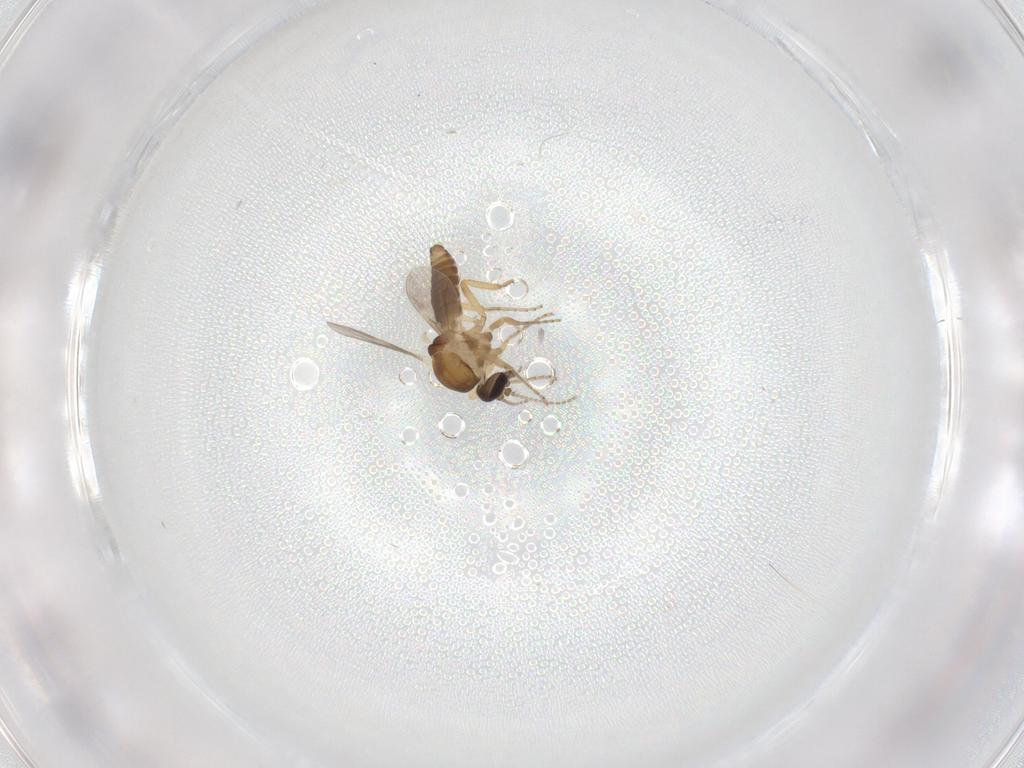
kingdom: Animalia
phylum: Arthropoda
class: Insecta
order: Diptera
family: Ceratopogonidae
